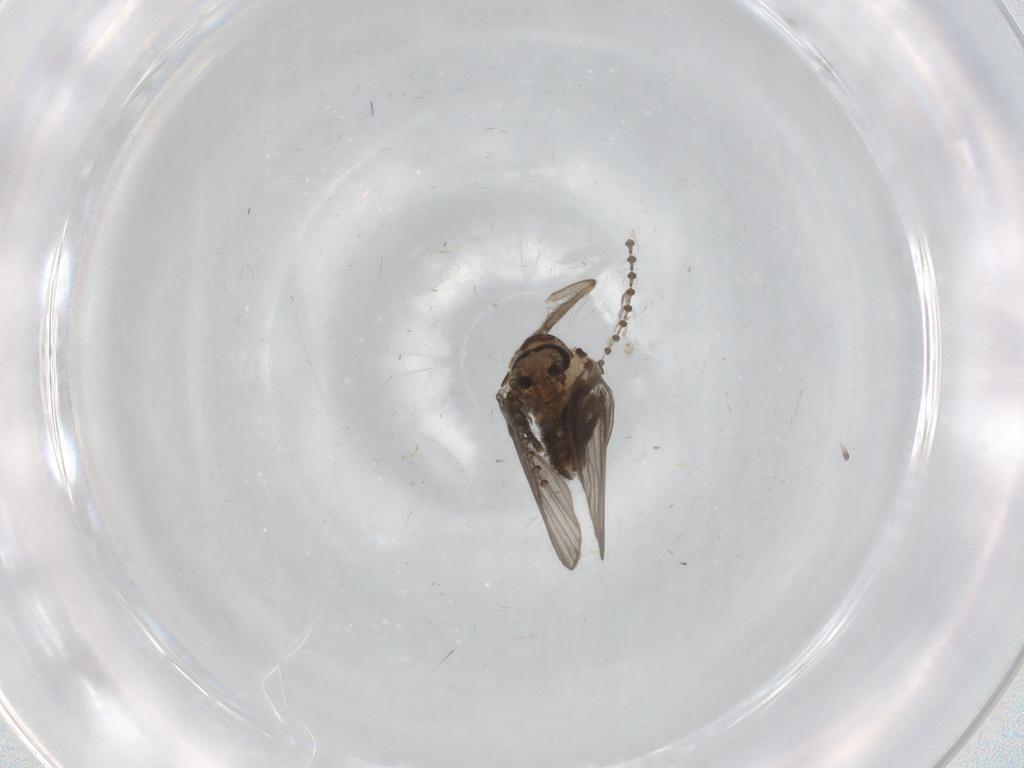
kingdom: Animalia
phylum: Arthropoda
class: Insecta
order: Diptera
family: Psychodidae
